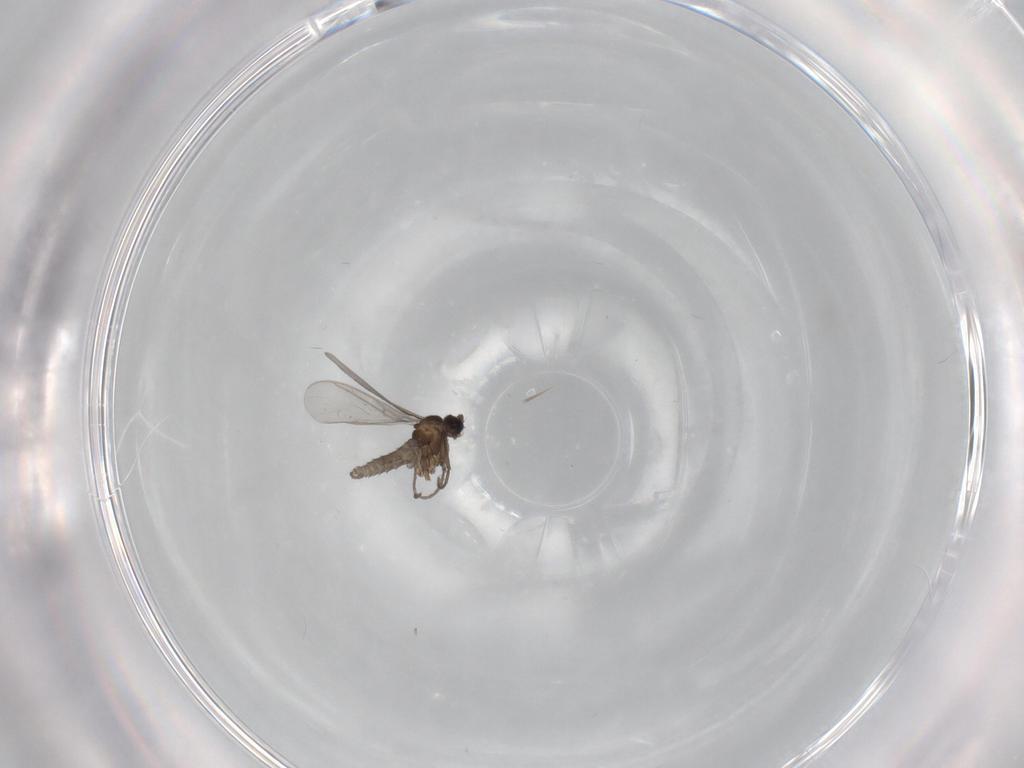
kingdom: Animalia
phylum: Arthropoda
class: Insecta
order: Diptera
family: Sciaridae
